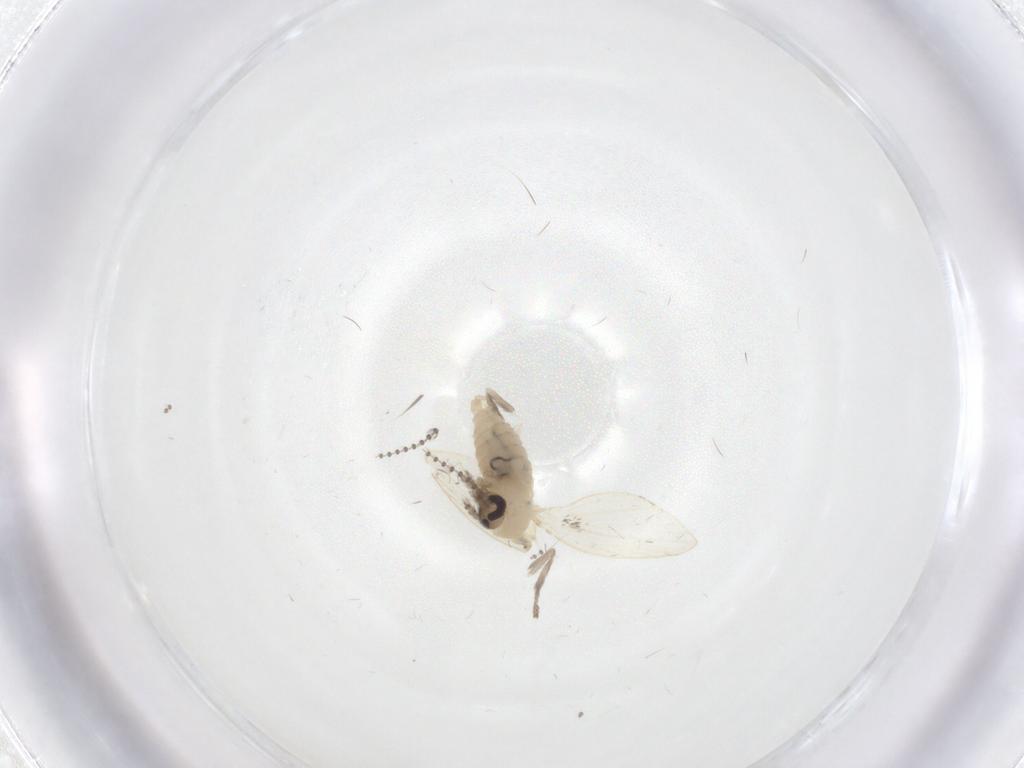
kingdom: Animalia
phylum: Arthropoda
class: Insecta
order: Diptera
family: Psychodidae
